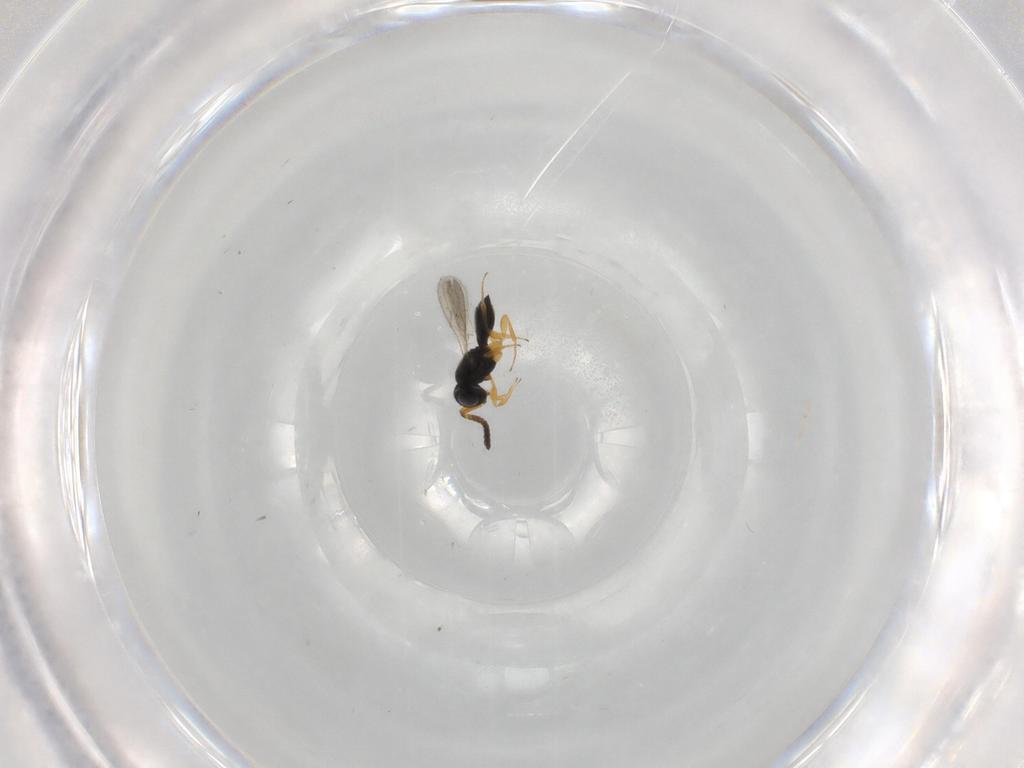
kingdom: Animalia
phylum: Arthropoda
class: Insecta
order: Hymenoptera
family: Scelionidae
